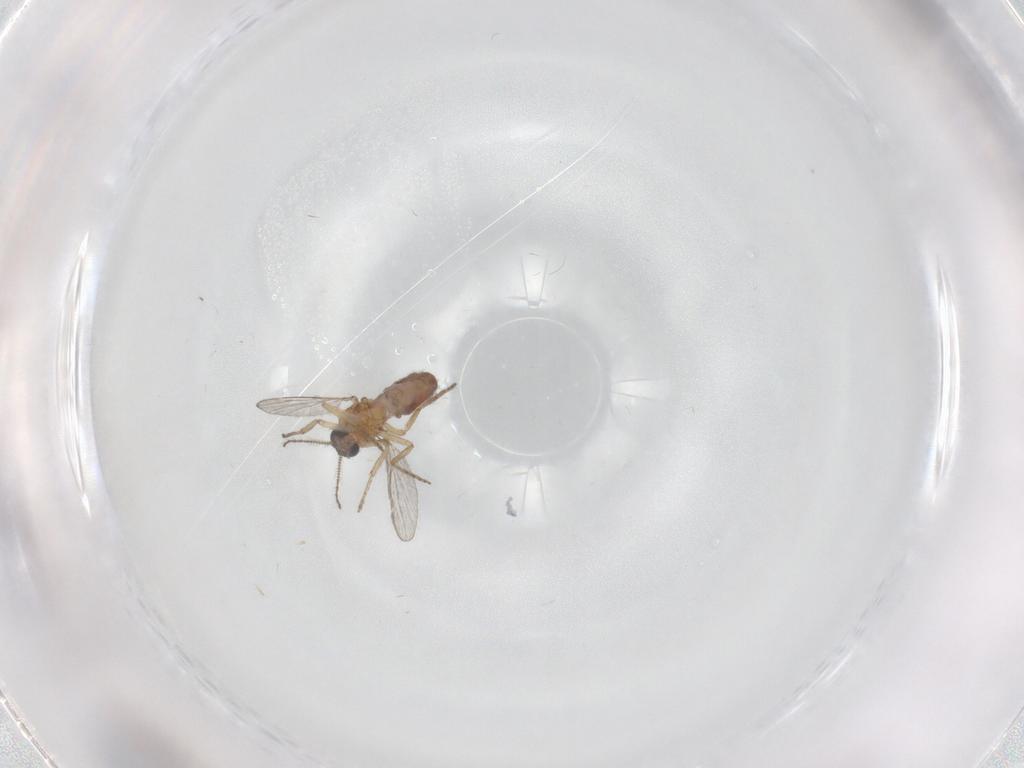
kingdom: Animalia
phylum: Arthropoda
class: Insecta
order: Diptera
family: Ceratopogonidae
